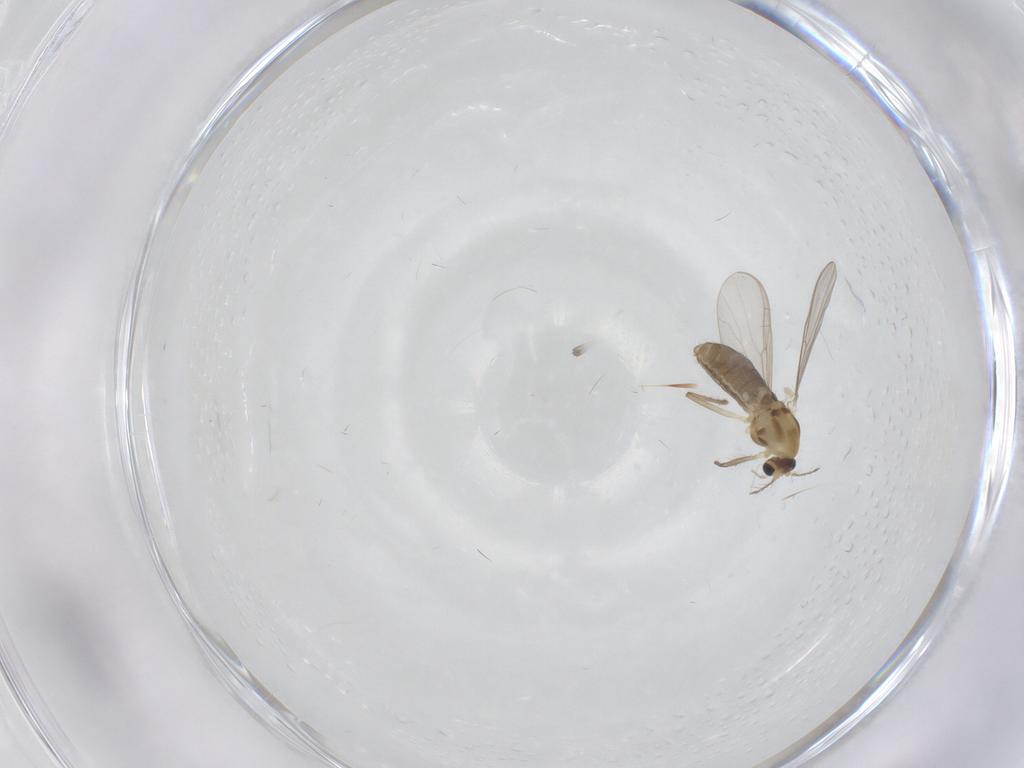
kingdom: Animalia
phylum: Arthropoda
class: Insecta
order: Diptera
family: Chironomidae
